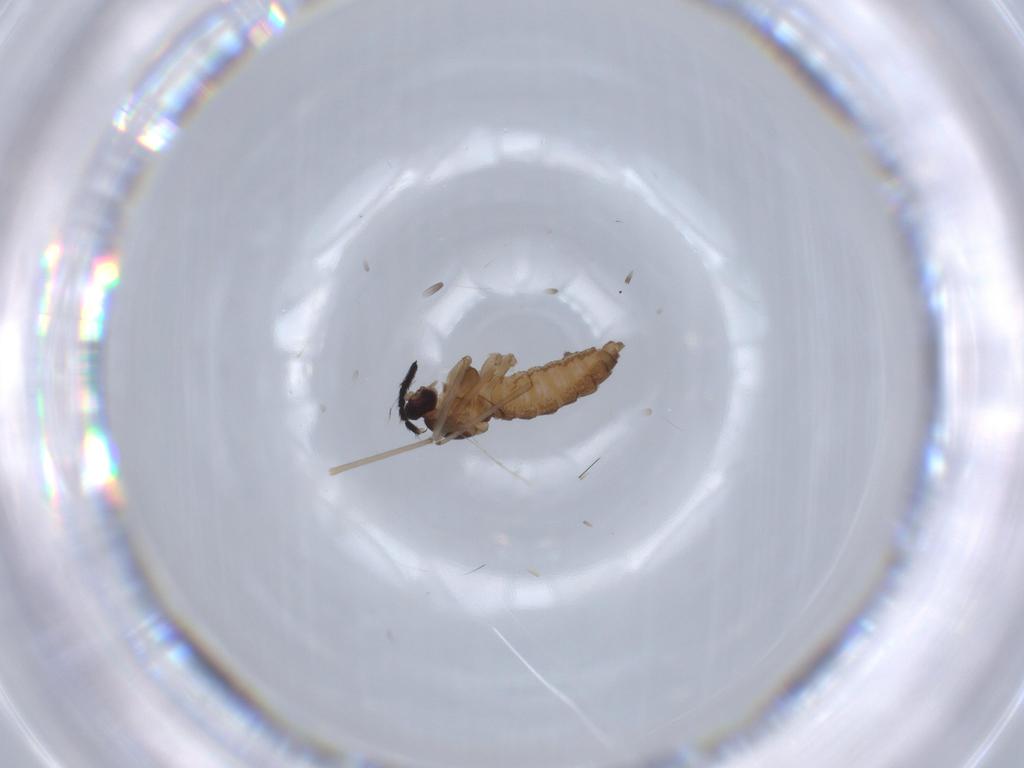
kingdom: Animalia
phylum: Arthropoda
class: Insecta
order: Diptera
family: Cecidomyiidae
